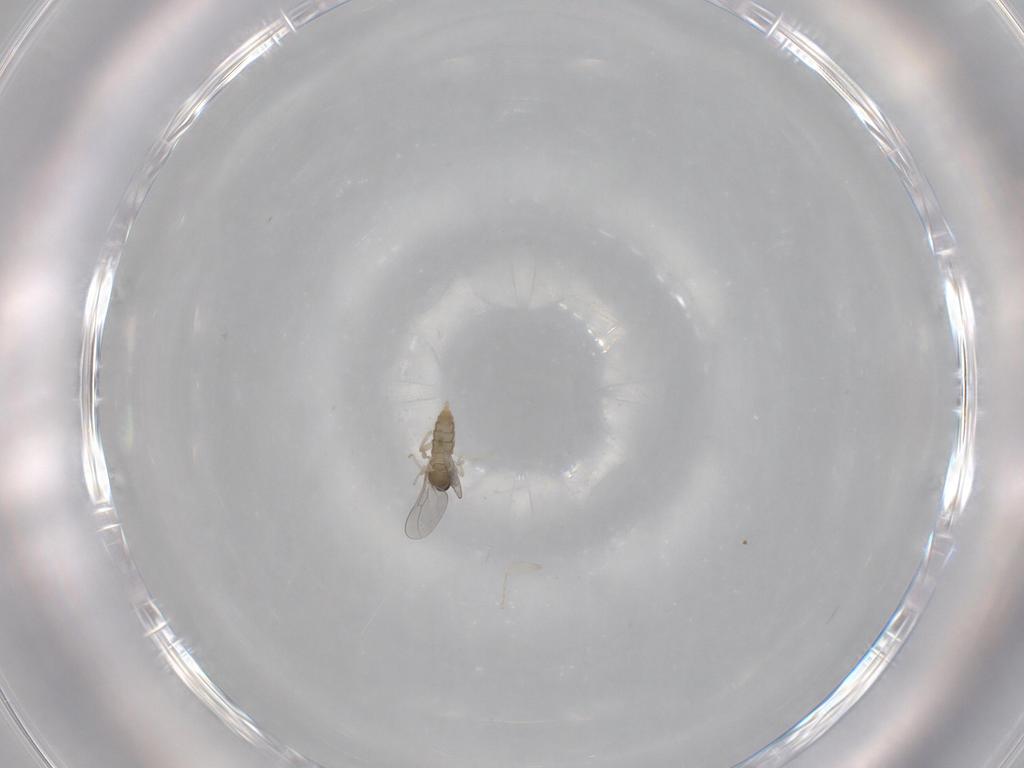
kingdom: Animalia
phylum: Arthropoda
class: Insecta
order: Diptera
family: Cecidomyiidae
